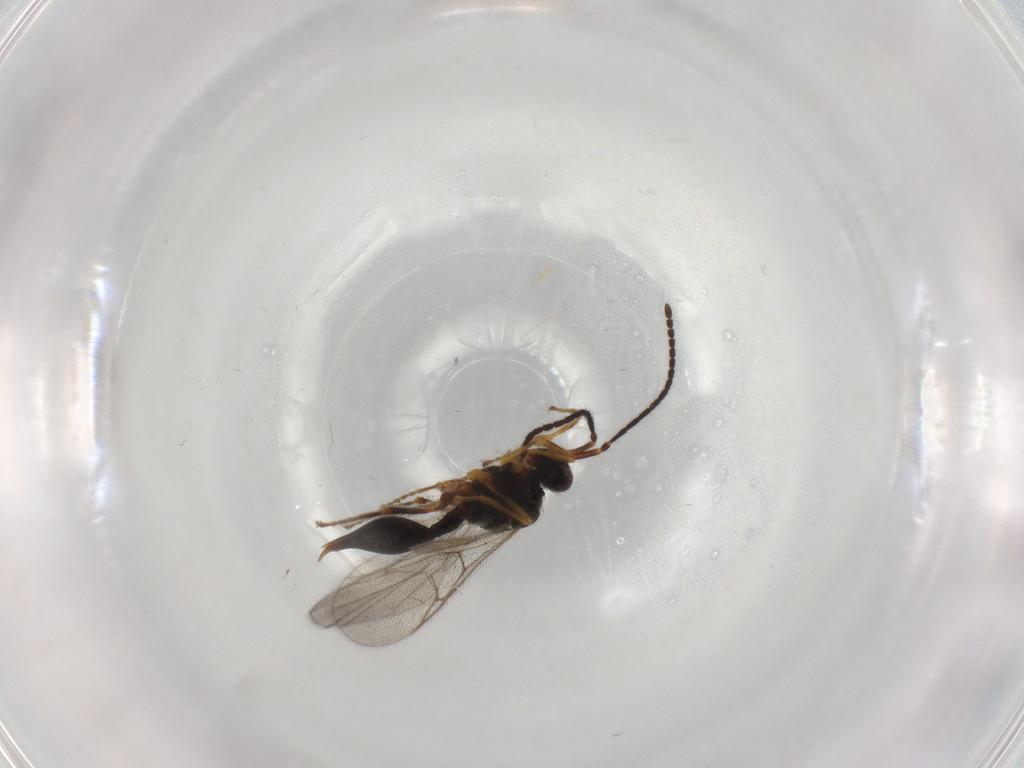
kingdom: Animalia
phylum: Arthropoda
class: Insecta
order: Hymenoptera
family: Diapriidae
